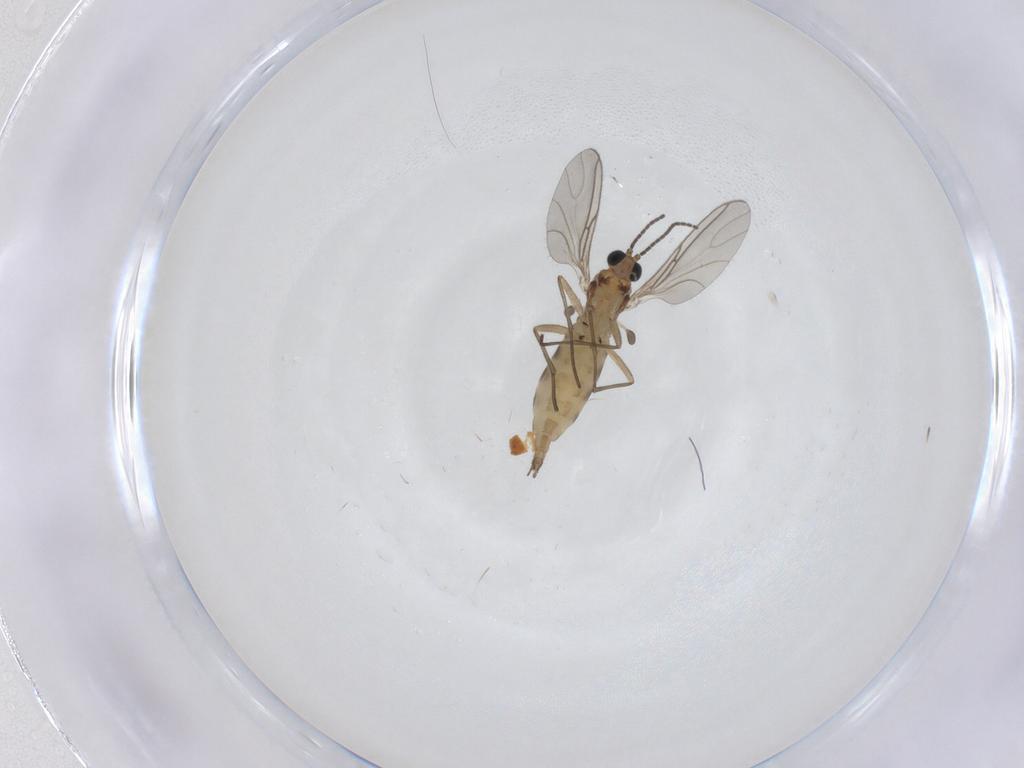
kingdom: Animalia
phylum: Arthropoda
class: Insecta
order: Diptera
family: Sciaridae
